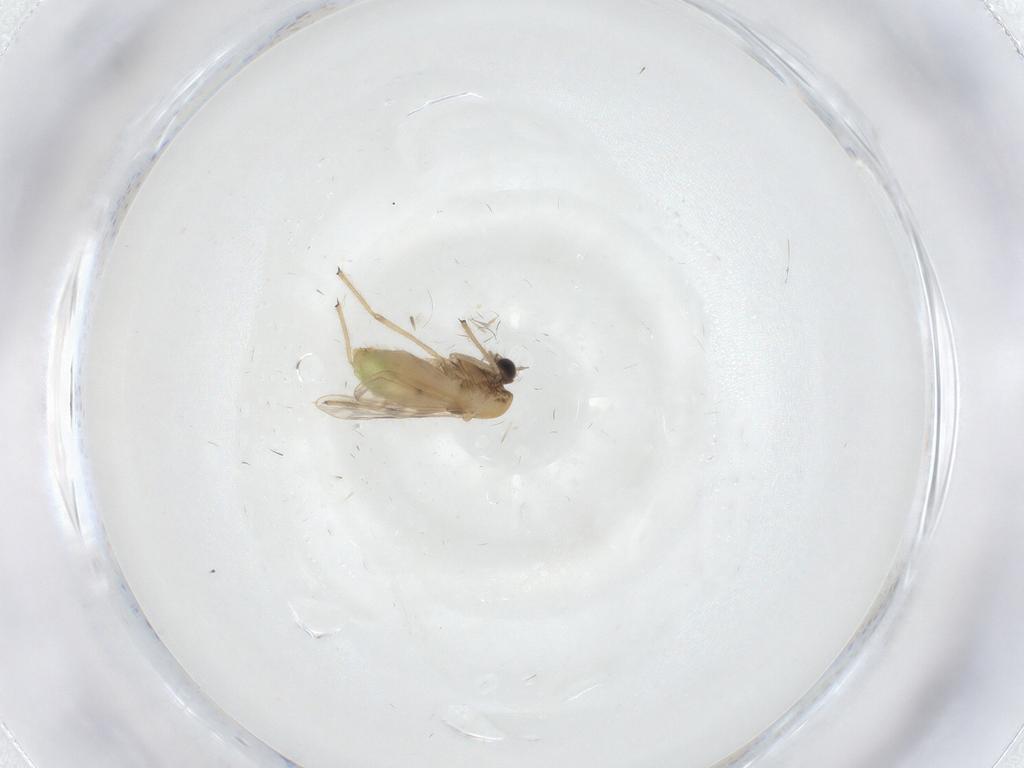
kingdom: Animalia
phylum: Arthropoda
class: Insecta
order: Diptera
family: Chironomidae
